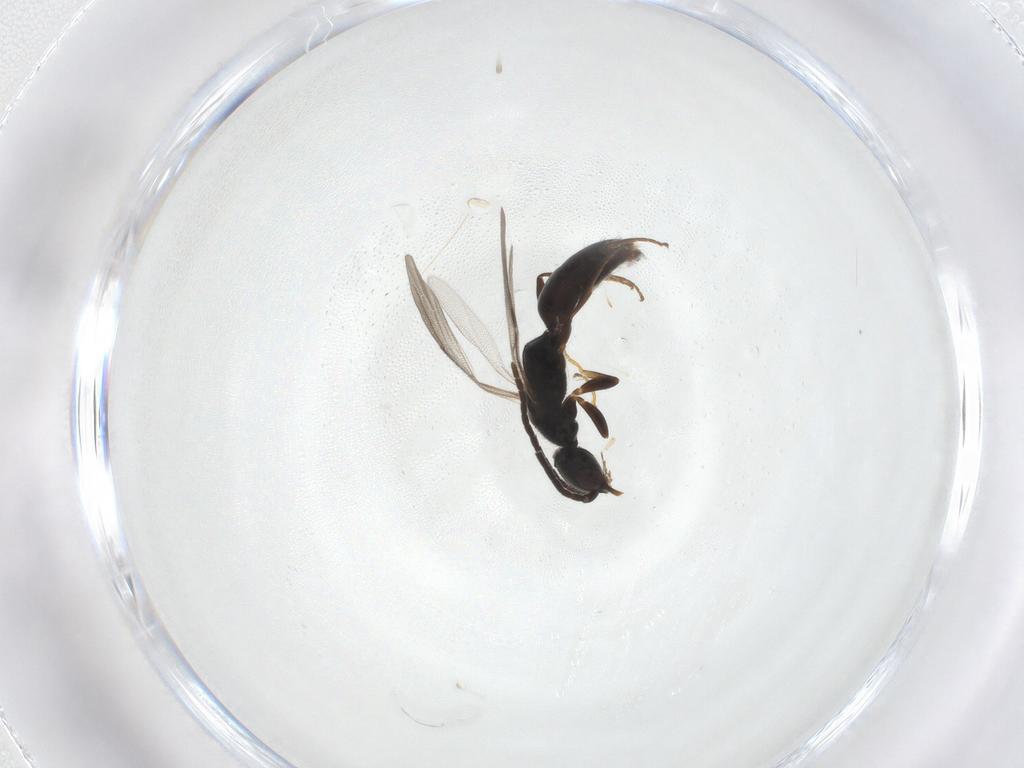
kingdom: Animalia
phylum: Arthropoda
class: Insecta
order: Hymenoptera
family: Bethylidae
